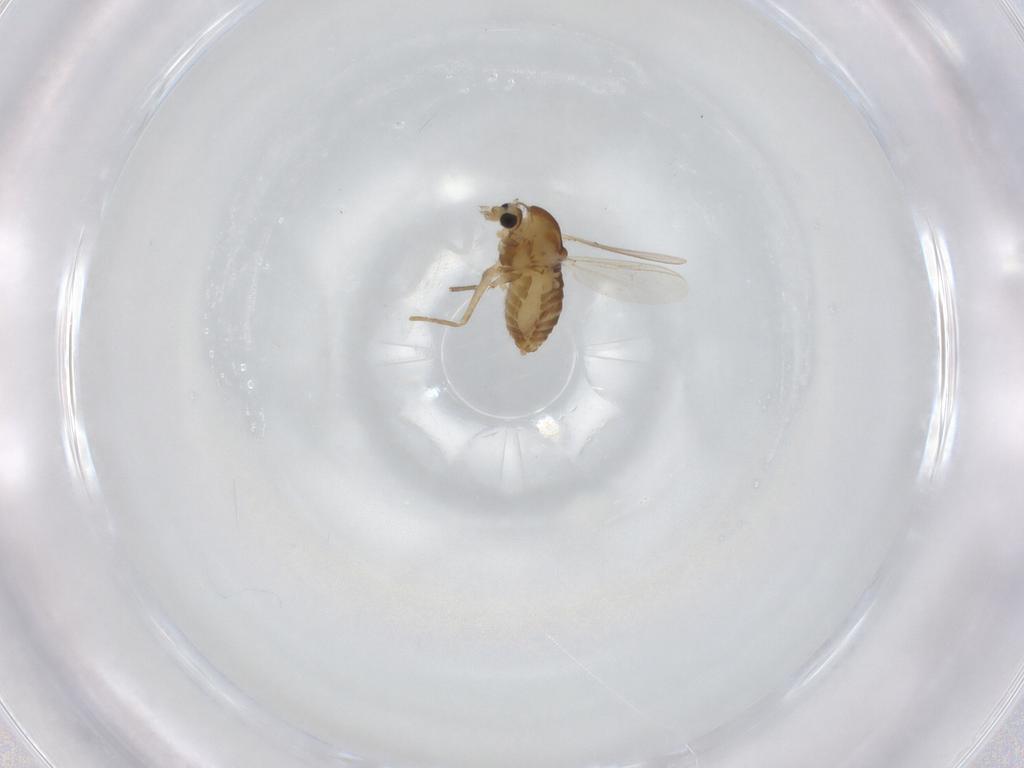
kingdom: Animalia
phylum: Arthropoda
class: Insecta
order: Diptera
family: Chironomidae
